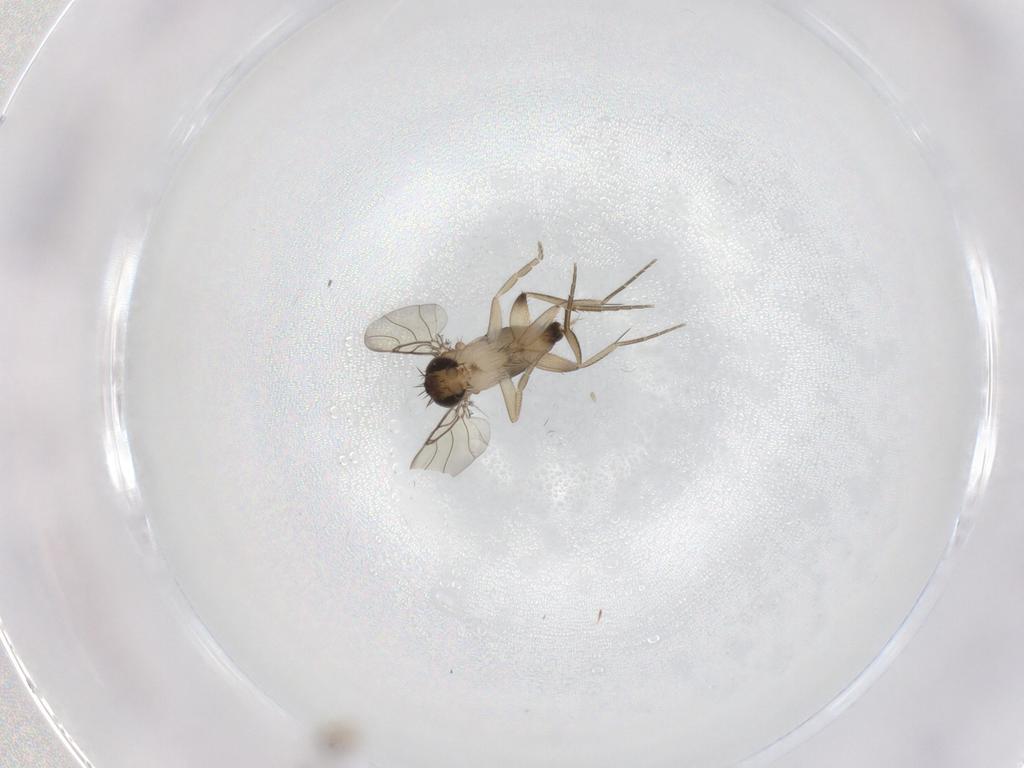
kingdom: Animalia
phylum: Arthropoda
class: Insecta
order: Diptera
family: Cecidomyiidae
